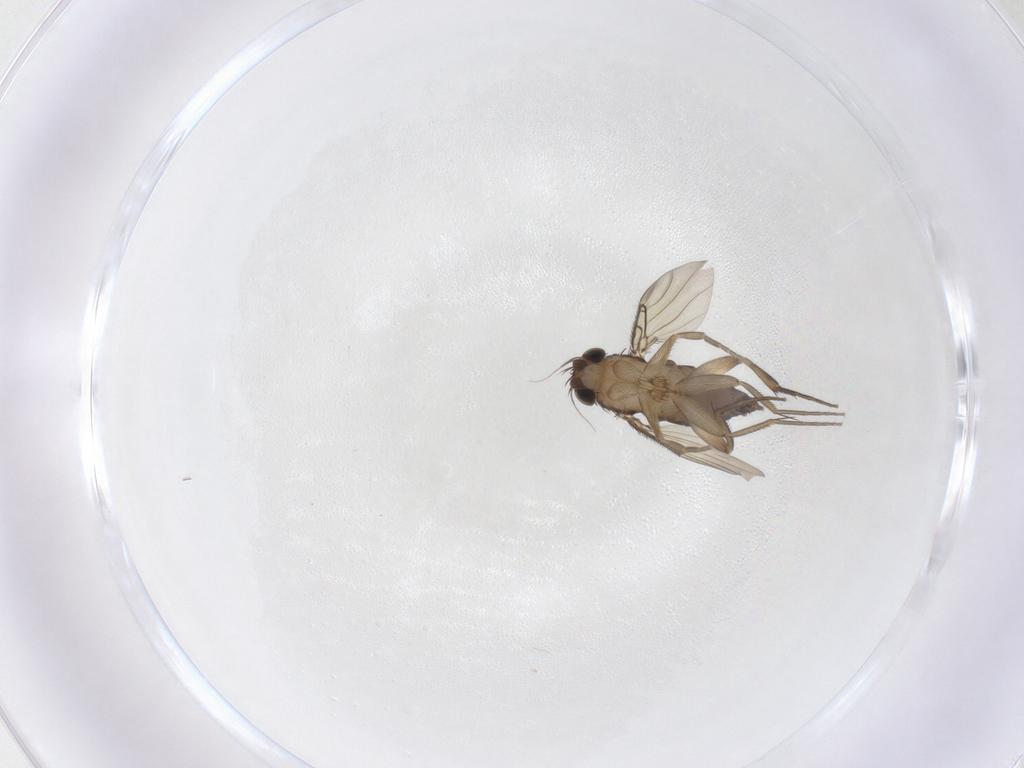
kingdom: Animalia
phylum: Arthropoda
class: Insecta
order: Diptera
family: Phoridae
